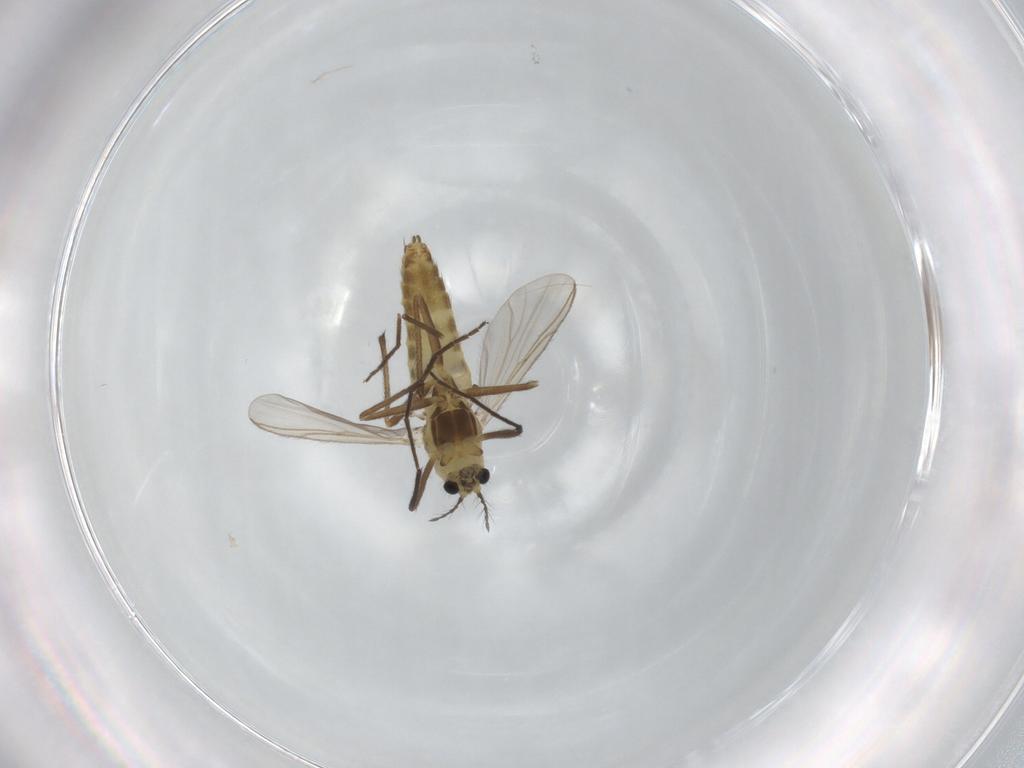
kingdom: Animalia
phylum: Arthropoda
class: Insecta
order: Diptera
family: Chironomidae
